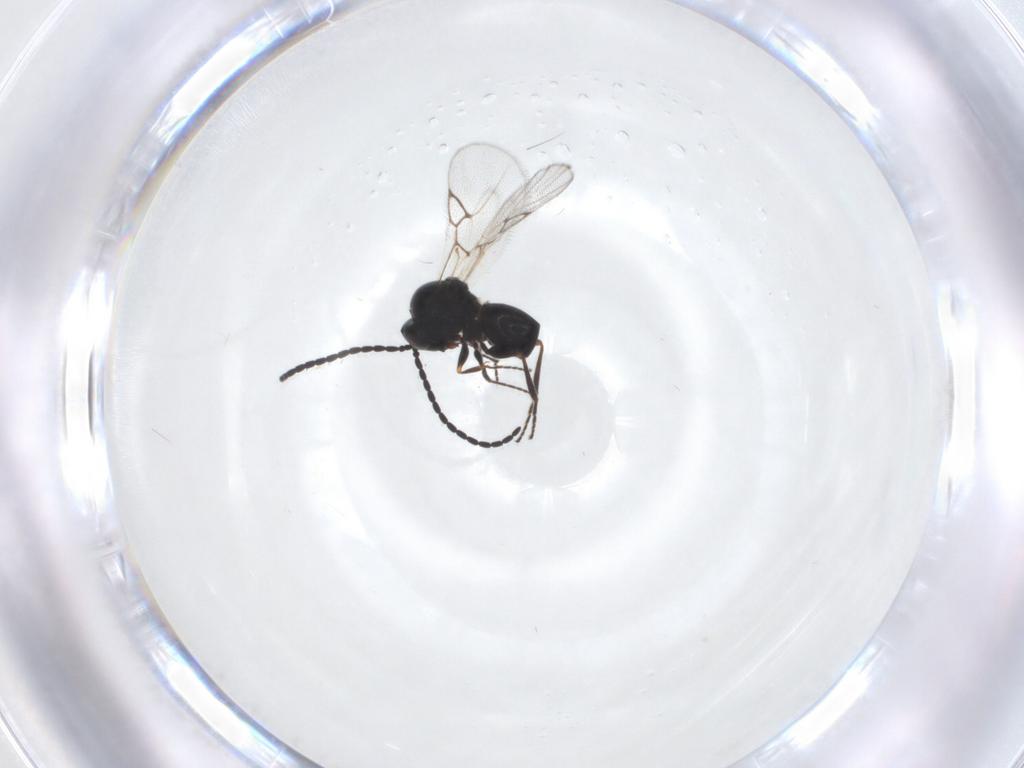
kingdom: Animalia
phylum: Arthropoda
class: Insecta
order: Hymenoptera
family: Figitidae
